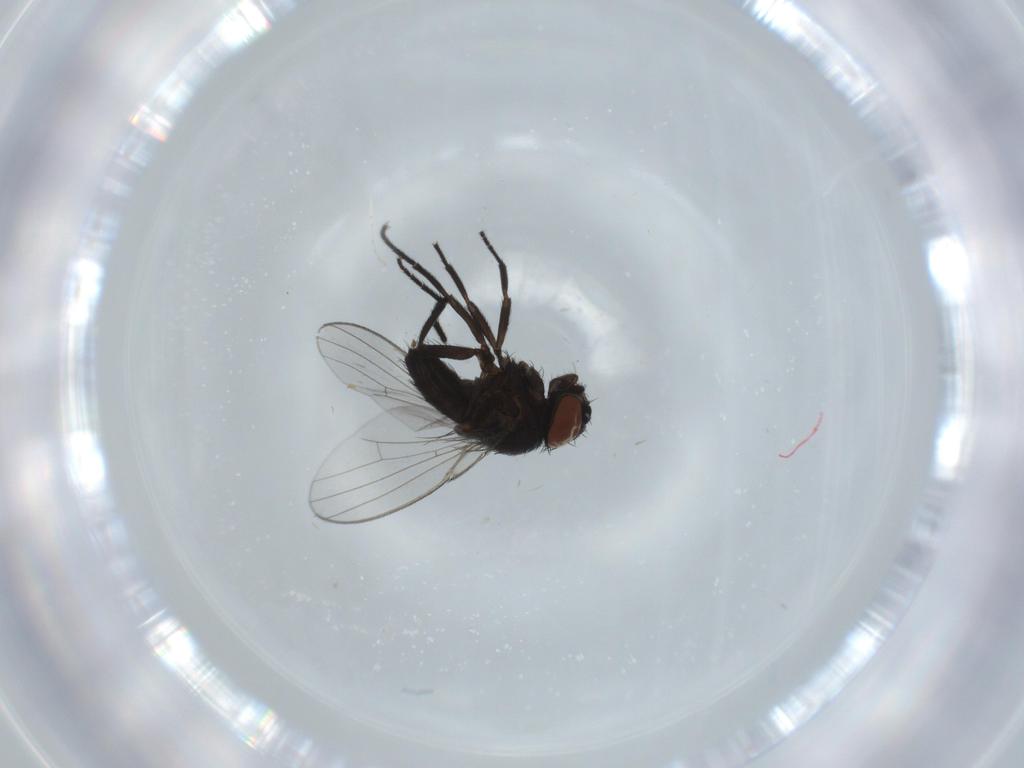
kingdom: Animalia
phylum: Arthropoda
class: Insecta
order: Diptera
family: Milichiidae
